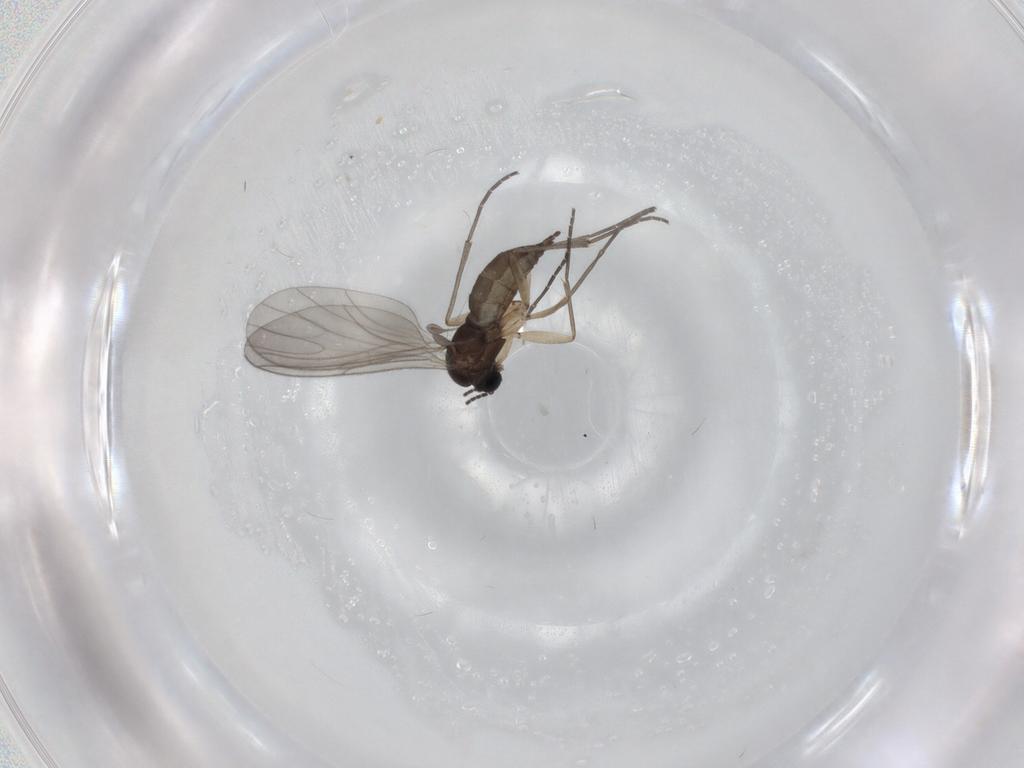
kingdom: Animalia
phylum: Arthropoda
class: Insecta
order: Diptera
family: Sciaridae
